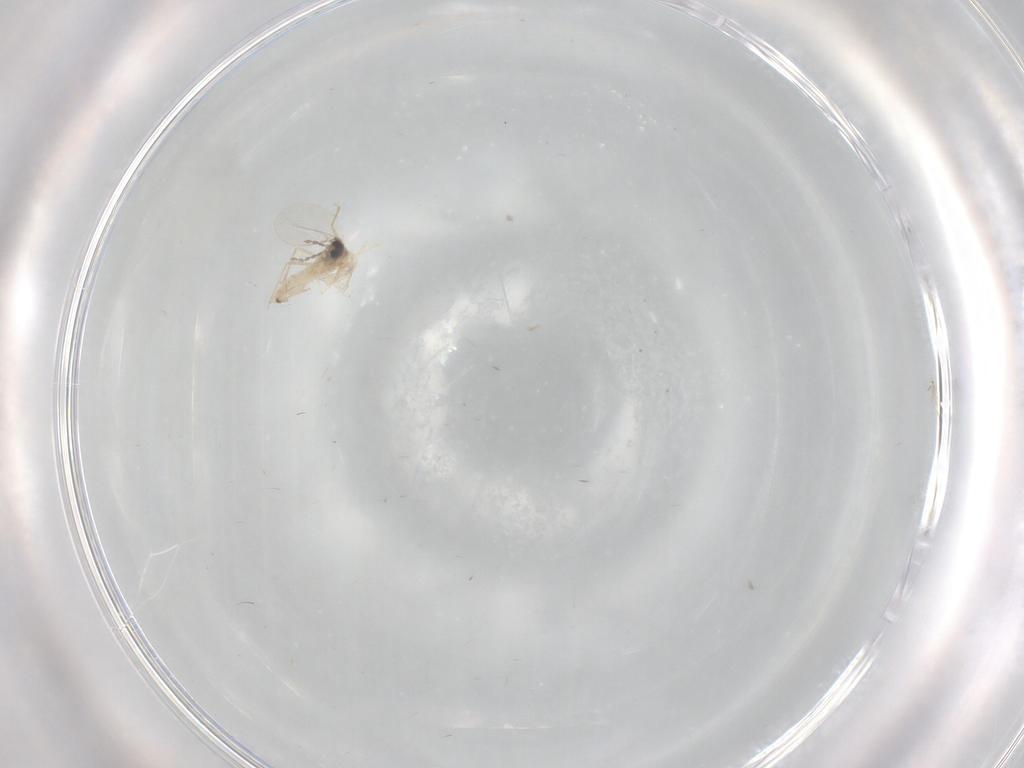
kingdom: Animalia
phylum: Arthropoda
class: Insecta
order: Diptera
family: Cecidomyiidae
